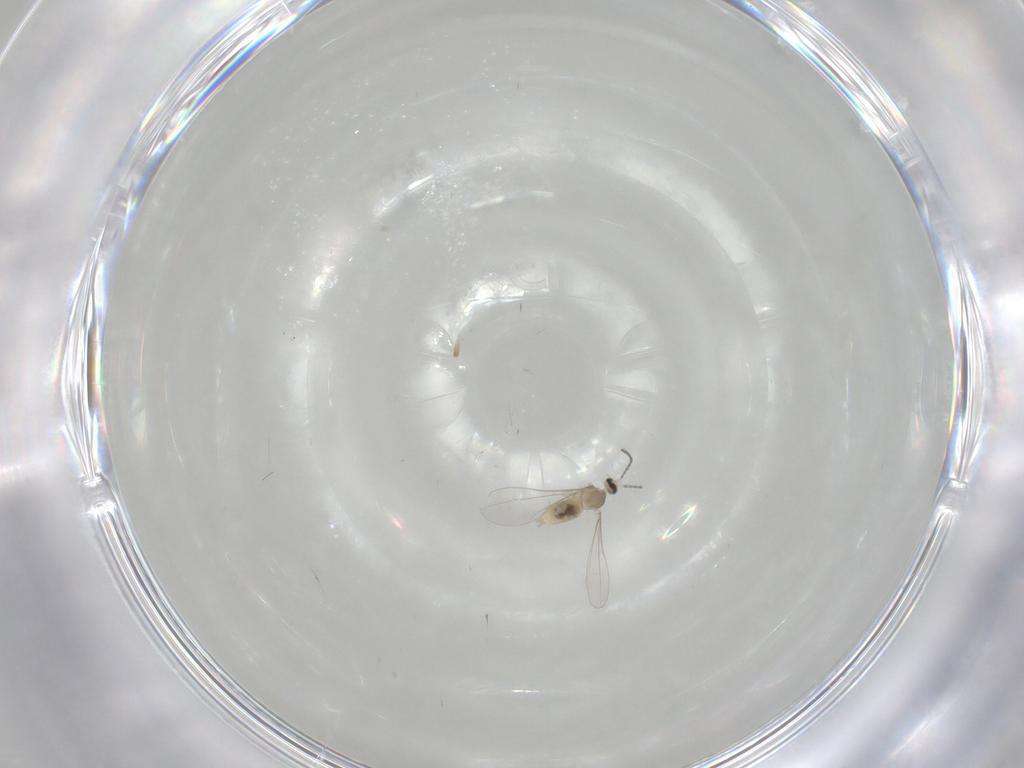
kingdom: Animalia
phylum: Arthropoda
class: Insecta
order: Diptera
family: Cecidomyiidae
